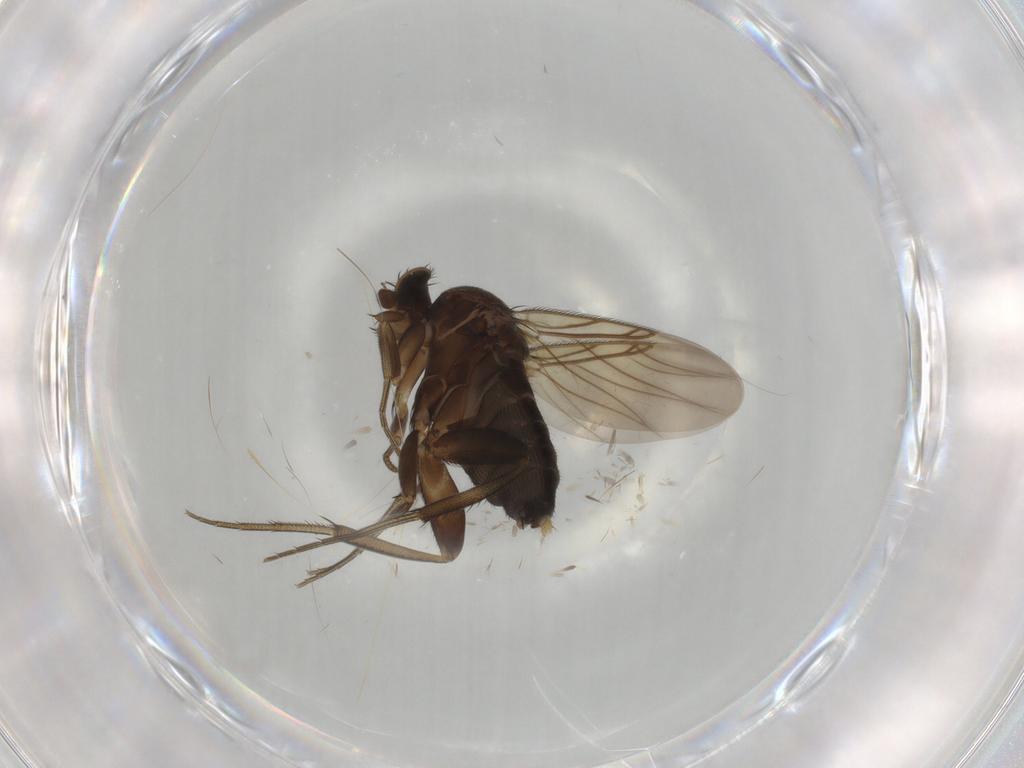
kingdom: Animalia
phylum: Arthropoda
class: Insecta
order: Diptera
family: Phoridae
